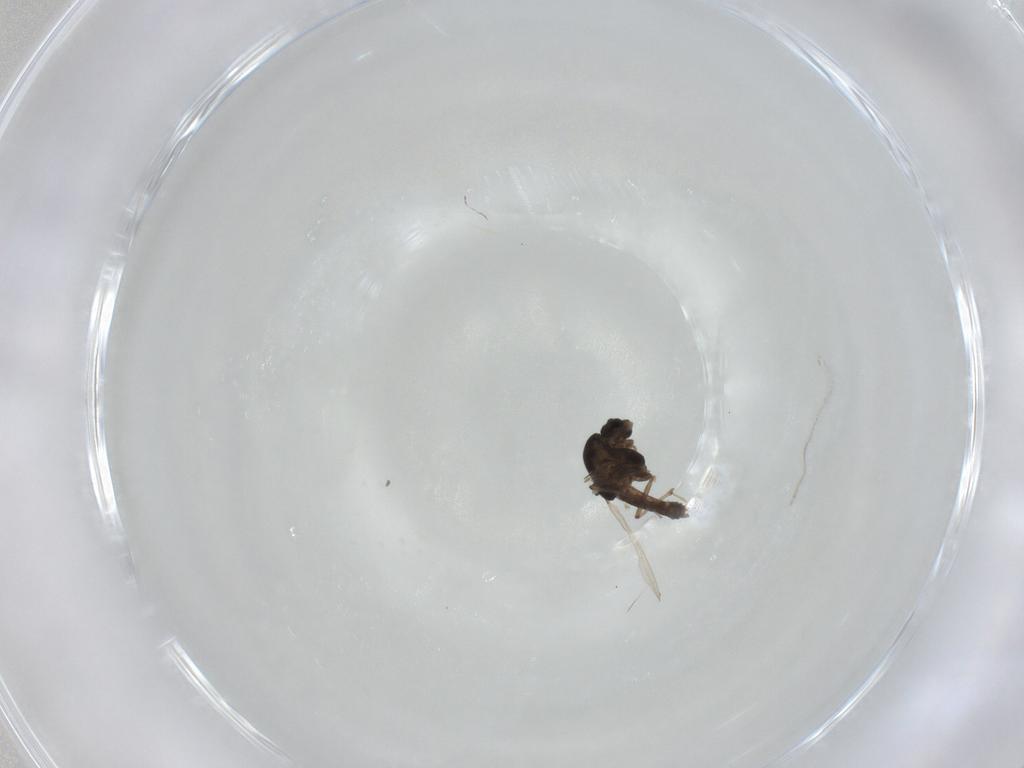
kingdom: Animalia
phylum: Arthropoda
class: Insecta
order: Diptera
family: Chironomidae
